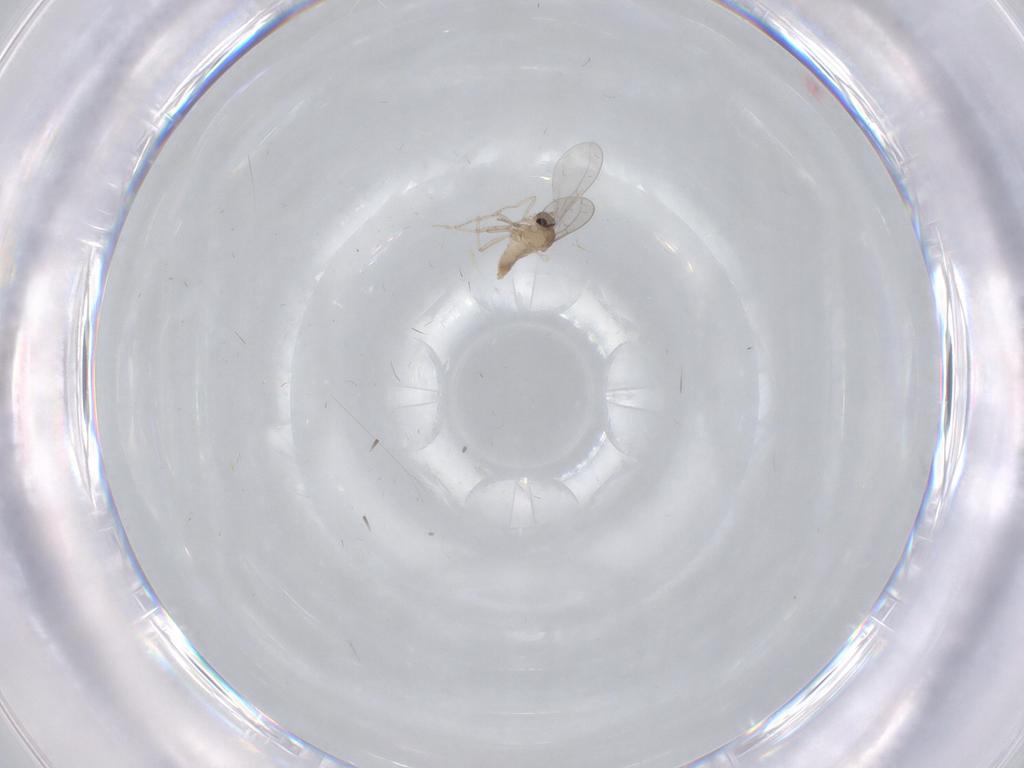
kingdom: Animalia
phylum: Arthropoda
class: Insecta
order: Diptera
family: Cecidomyiidae
